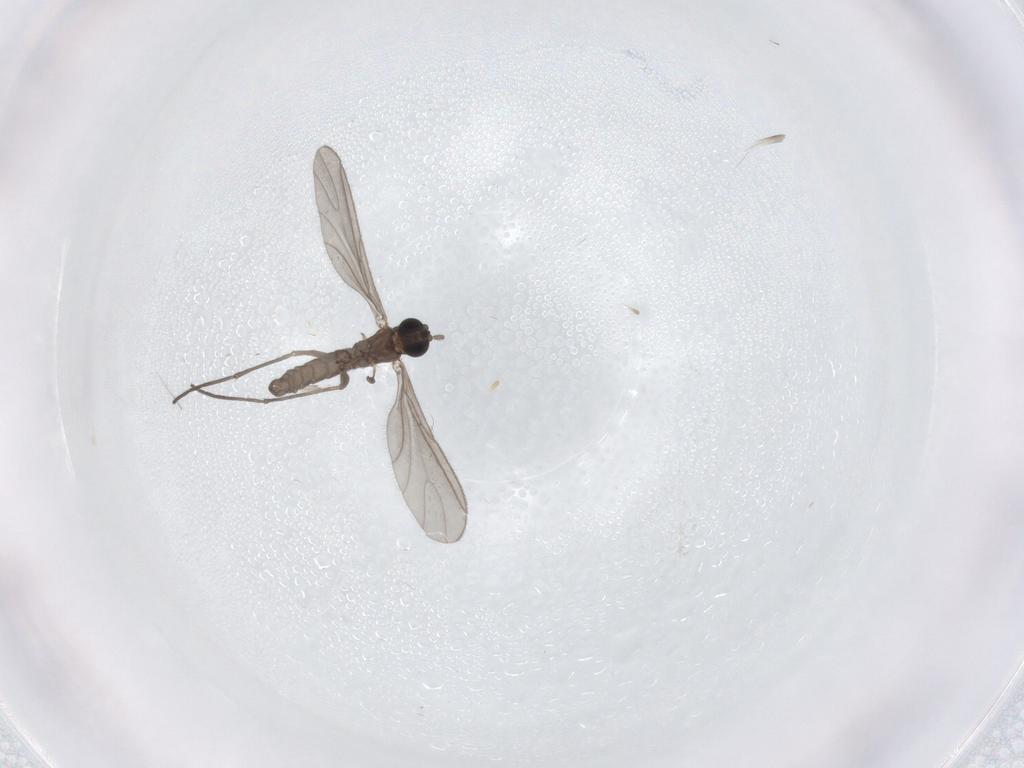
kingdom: Animalia
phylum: Arthropoda
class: Insecta
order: Diptera
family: Sciaridae
